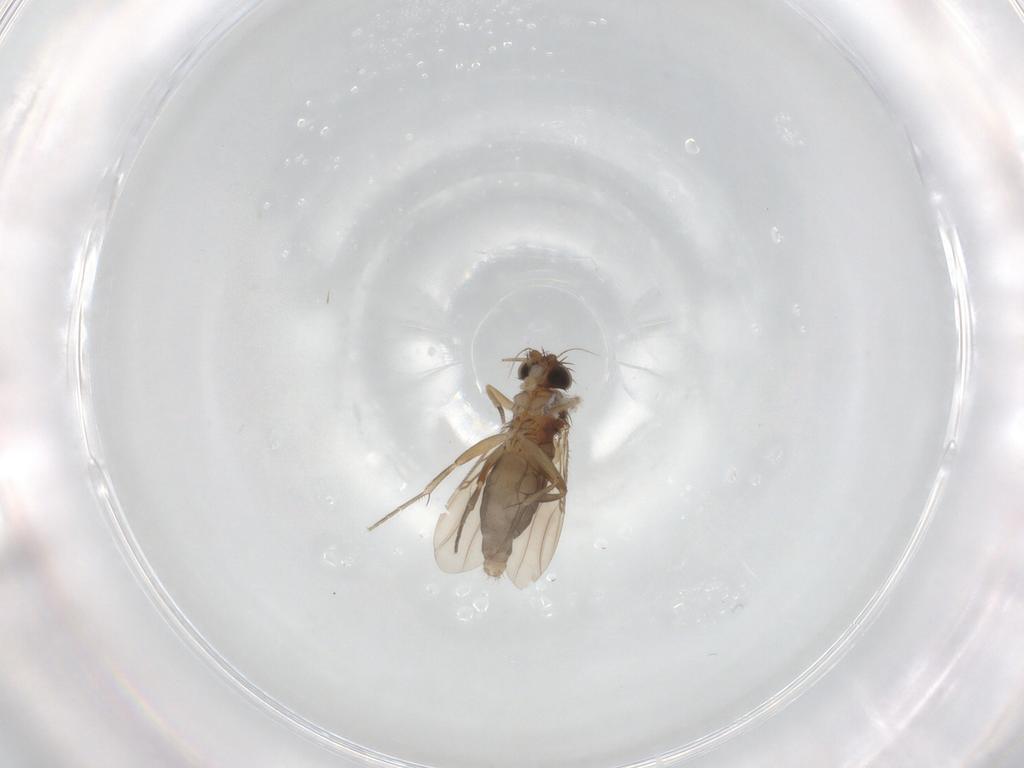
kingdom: Animalia
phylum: Arthropoda
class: Insecta
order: Diptera
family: Phoridae
